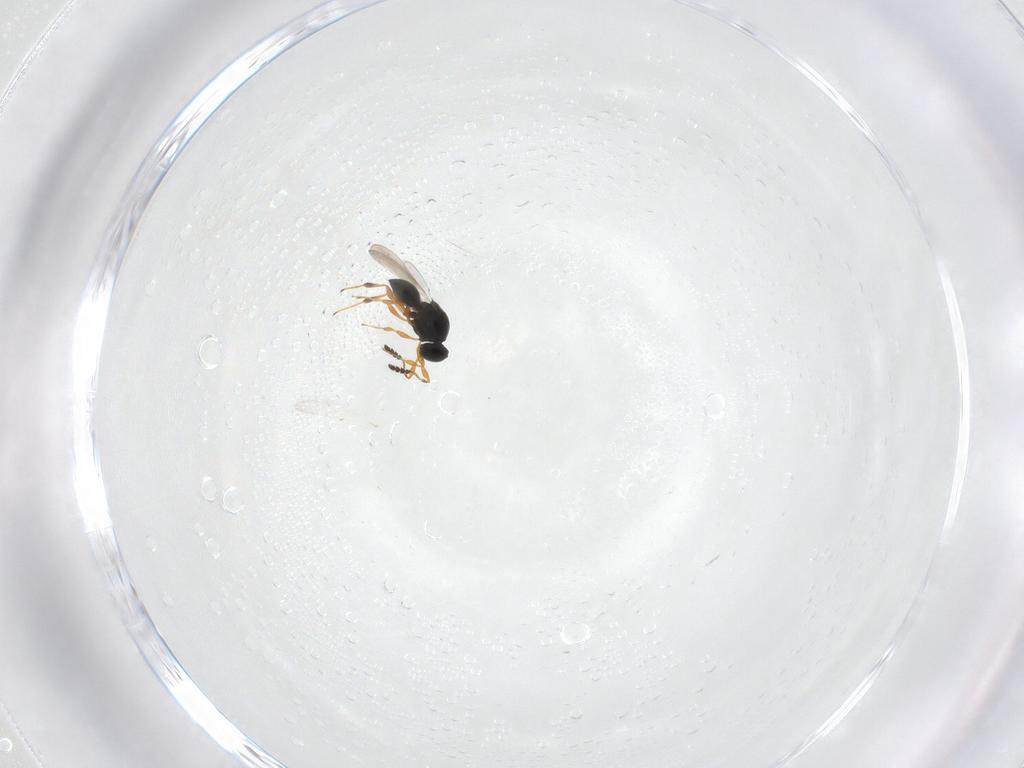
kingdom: Animalia
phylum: Arthropoda
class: Insecta
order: Hymenoptera
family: Platygastridae
